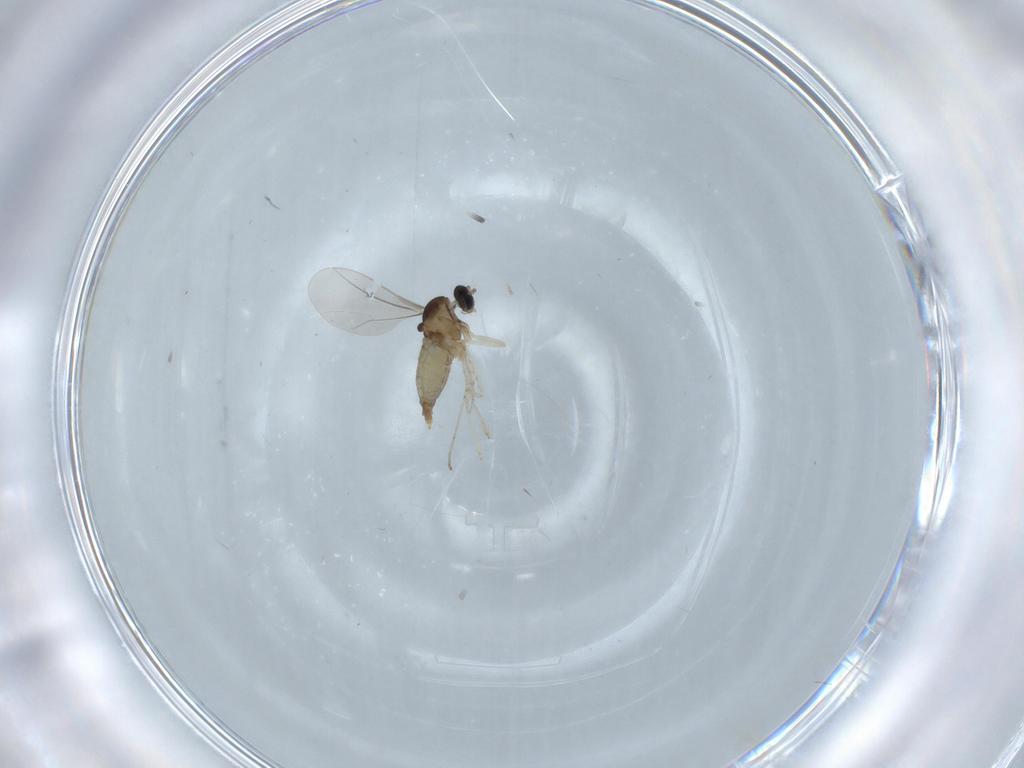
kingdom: Animalia
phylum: Arthropoda
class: Insecta
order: Diptera
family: Cecidomyiidae
